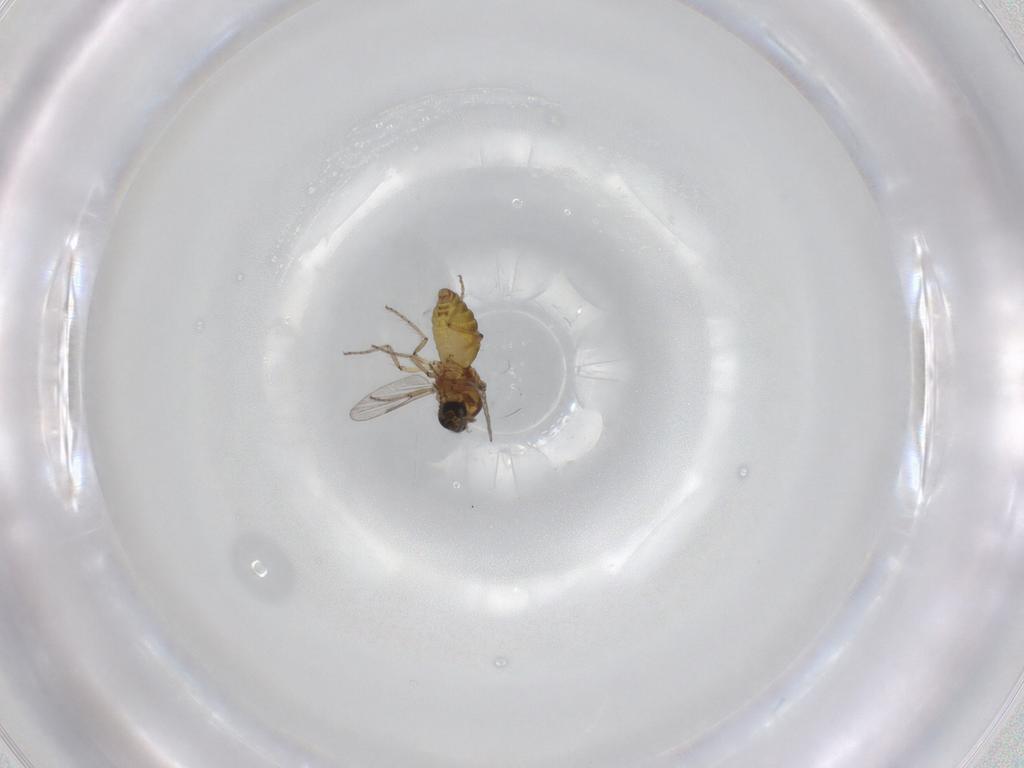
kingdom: Animalia
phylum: Arthropoda
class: Insecta
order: Diptera
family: Ceratopogonidae
